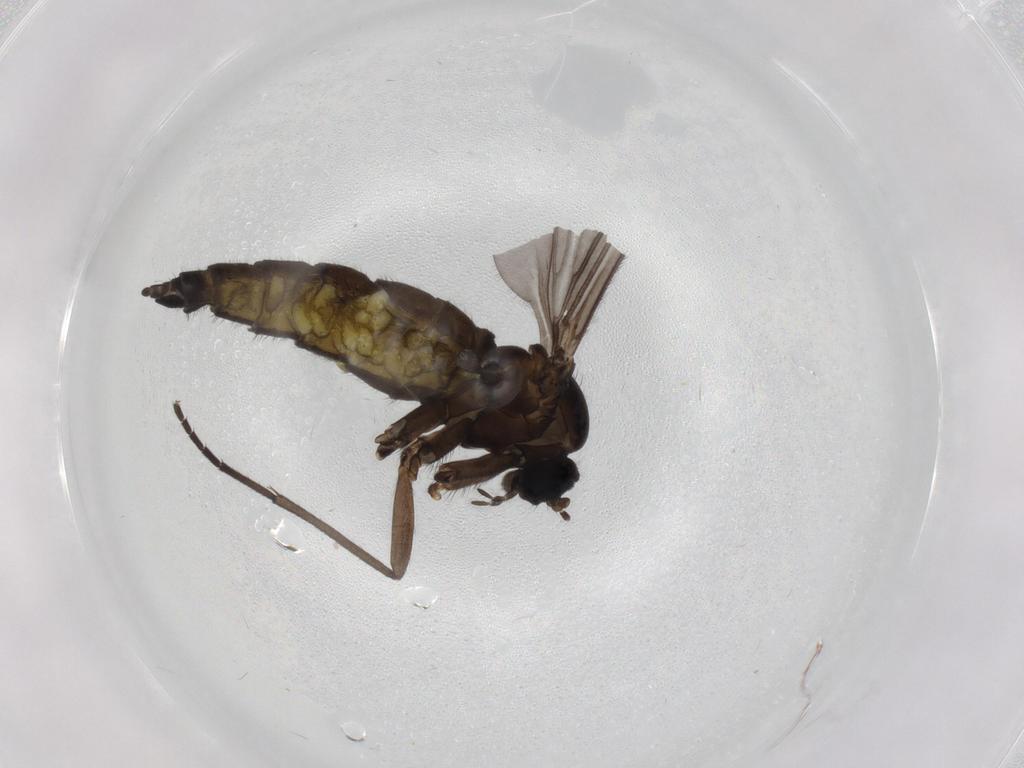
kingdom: Animalia
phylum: Arthropoda
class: Insecta
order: Diptera
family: Sciaridae
